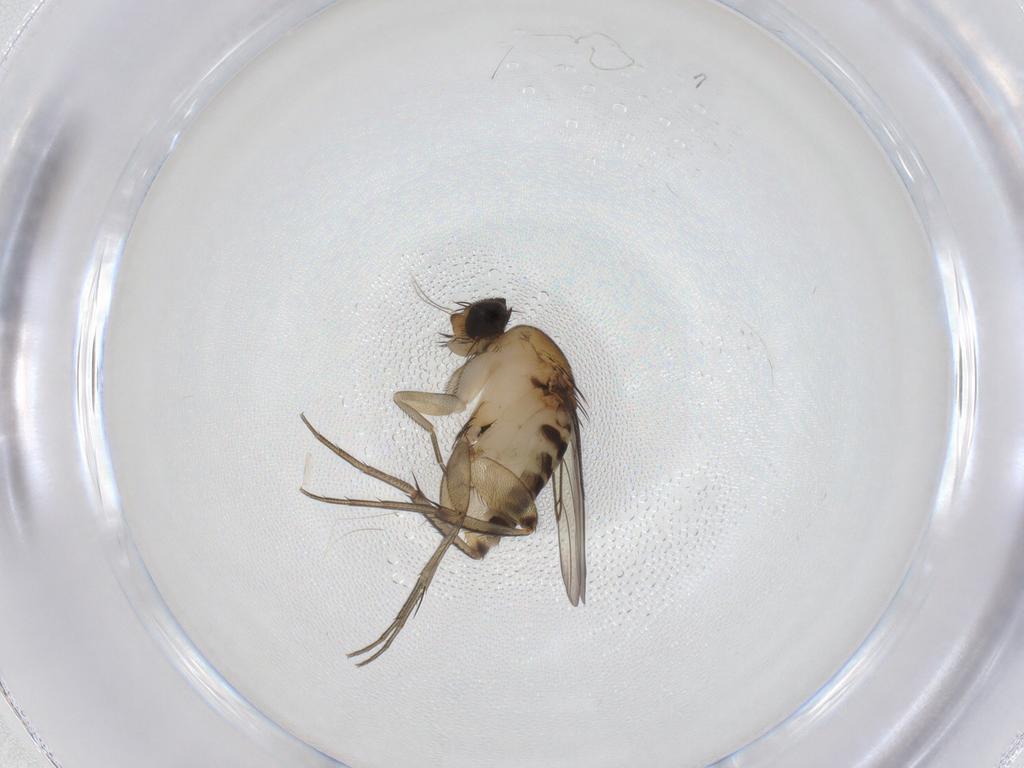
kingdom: Animalia
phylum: Arthropoda
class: Insecta
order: Diptera
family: Phoridae
